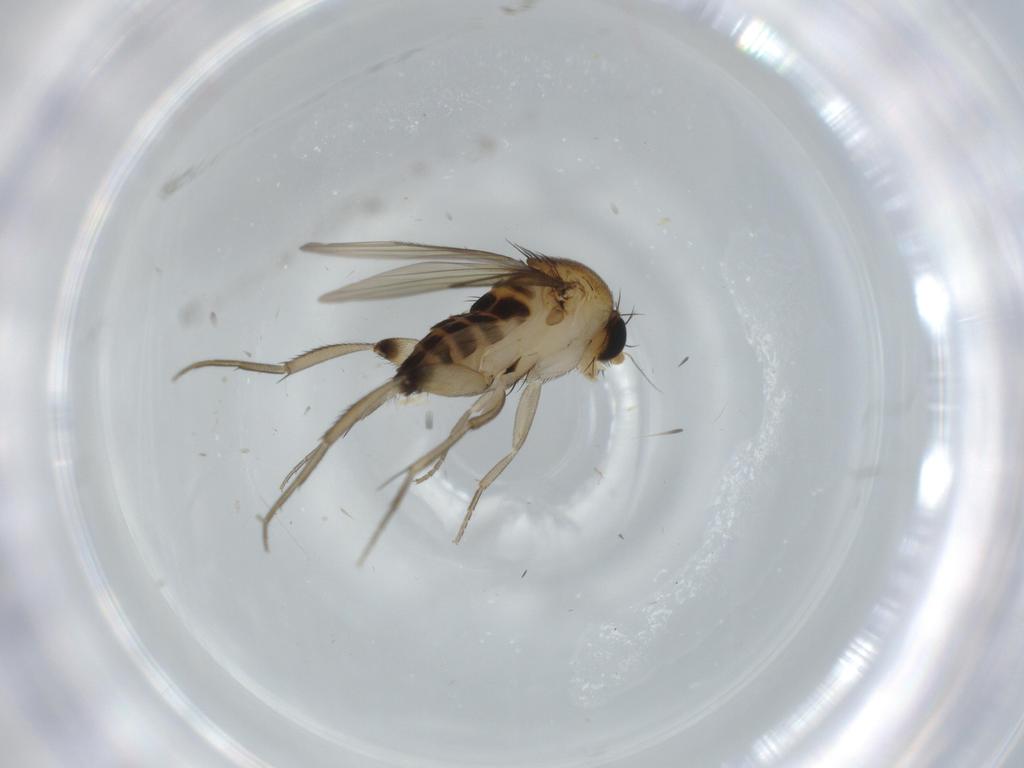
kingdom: Animalia
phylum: Arthropoda
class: Insecta
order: Diptera
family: Phoridae
